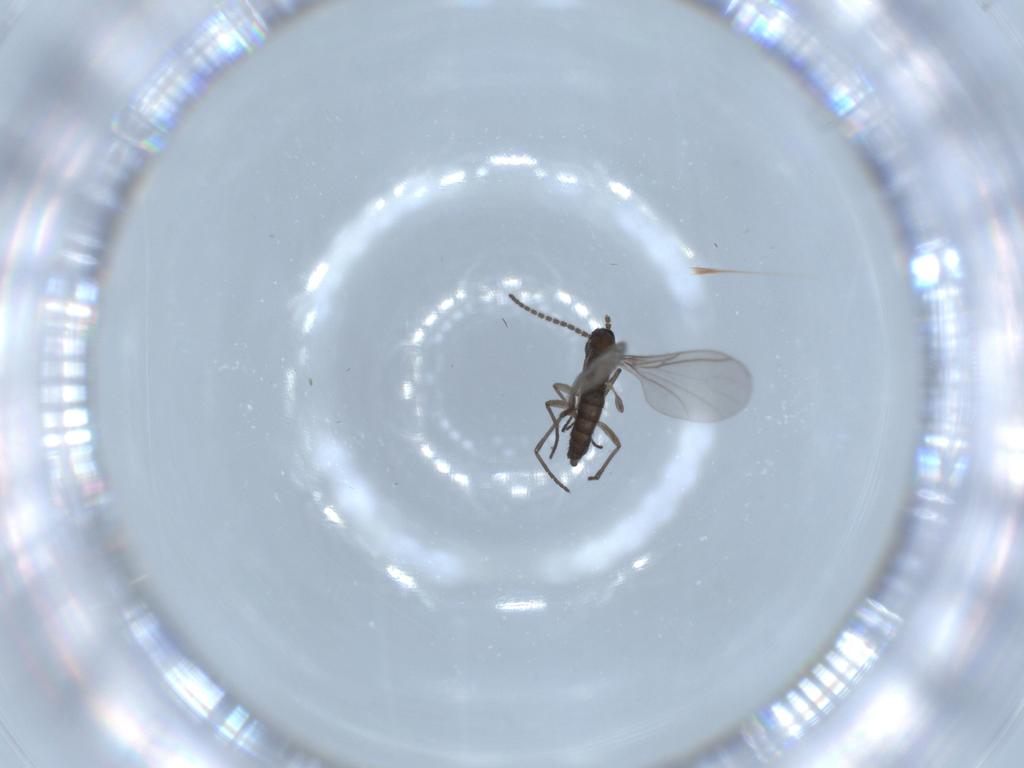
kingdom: Animalia
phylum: Arthropoda
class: Insecta
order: Diptera
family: Sciaridae
